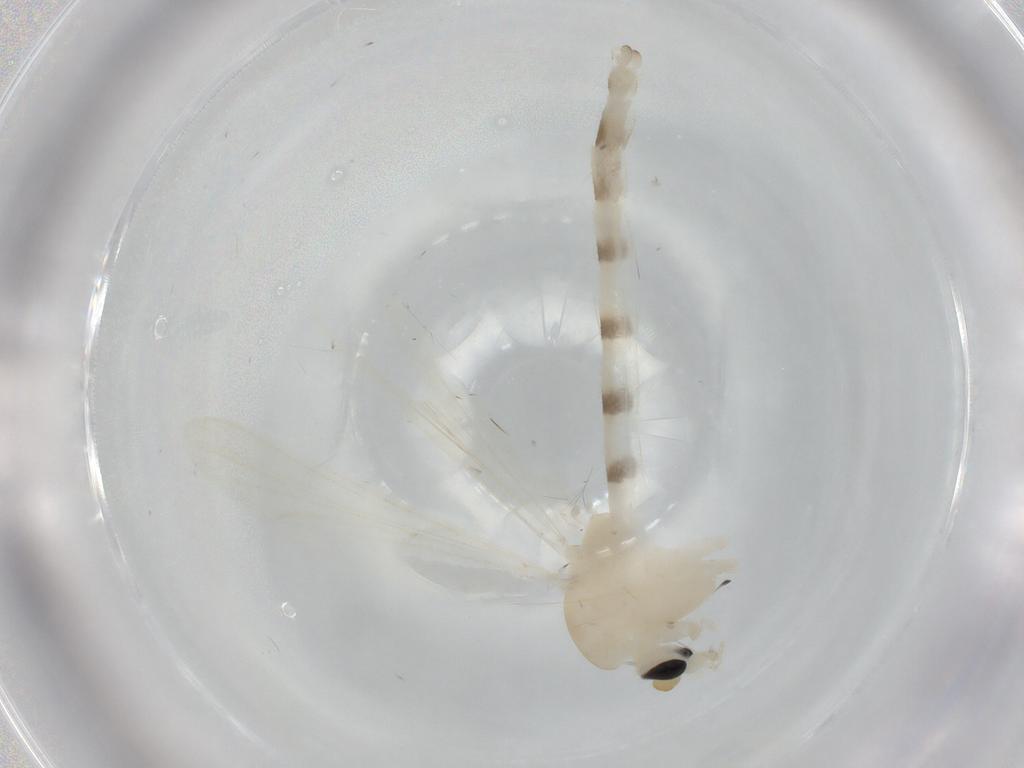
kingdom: Animalia
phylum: Arthropoda
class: Insecta
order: Diptera
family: Chironomidae
